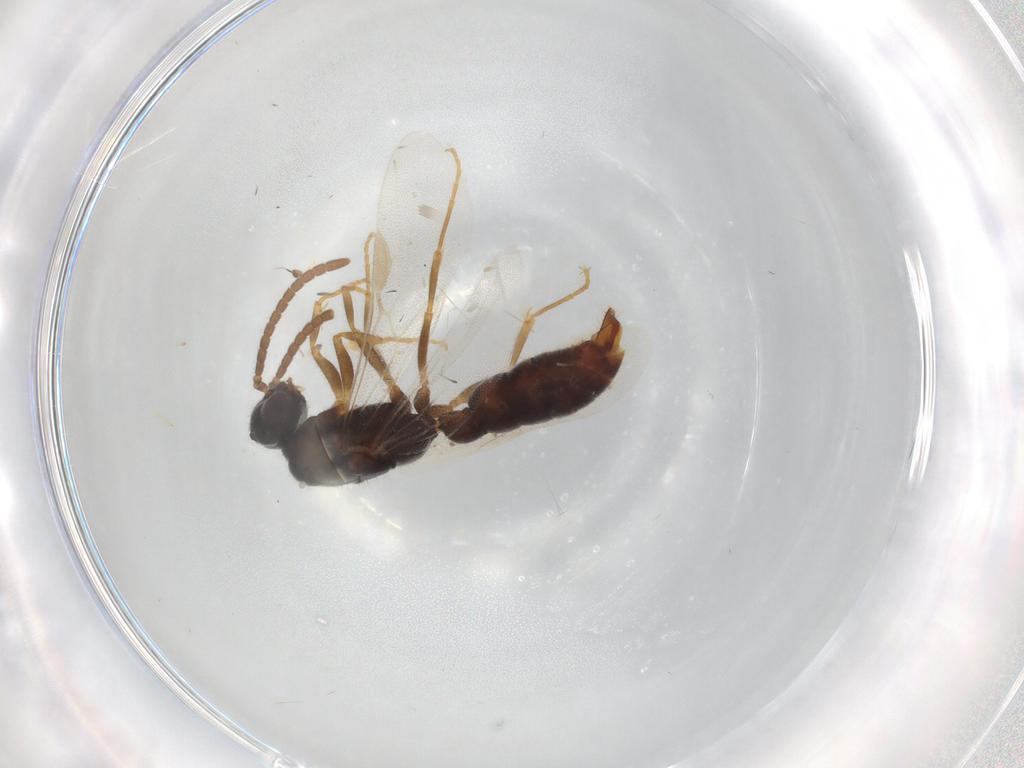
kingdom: Animalia
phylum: Arthropoda
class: Insecta
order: Hymenoptera
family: Formicidae
